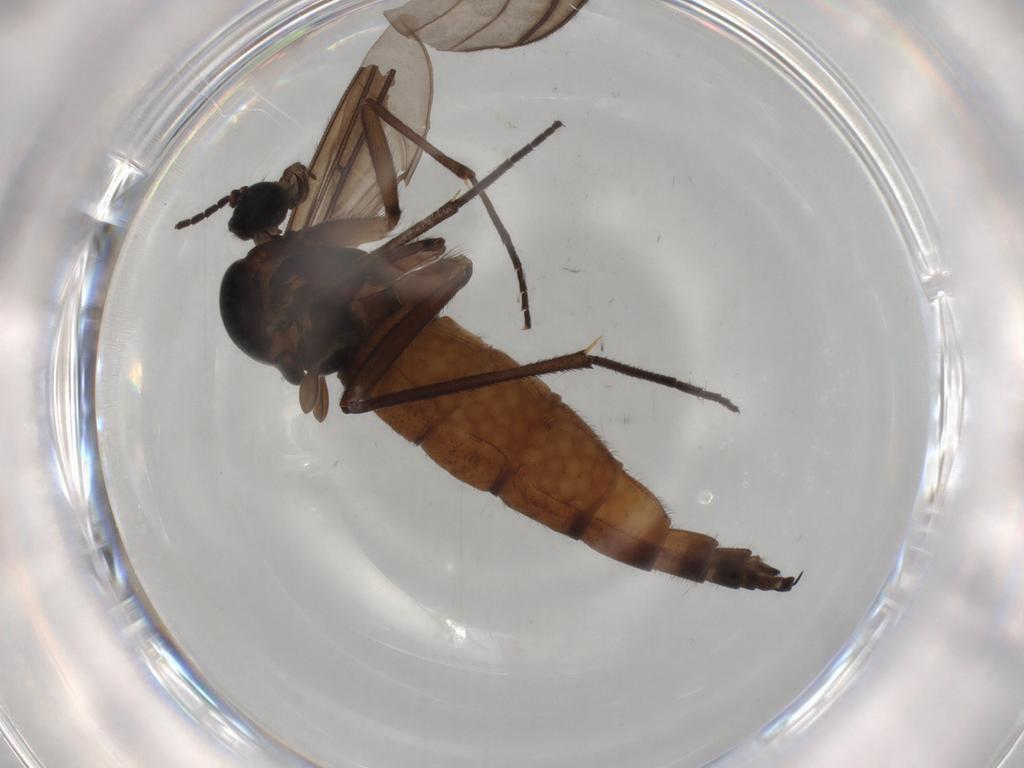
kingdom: Animalia
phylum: Arthropoda
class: Insecta
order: Diptera
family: Sciaridae
